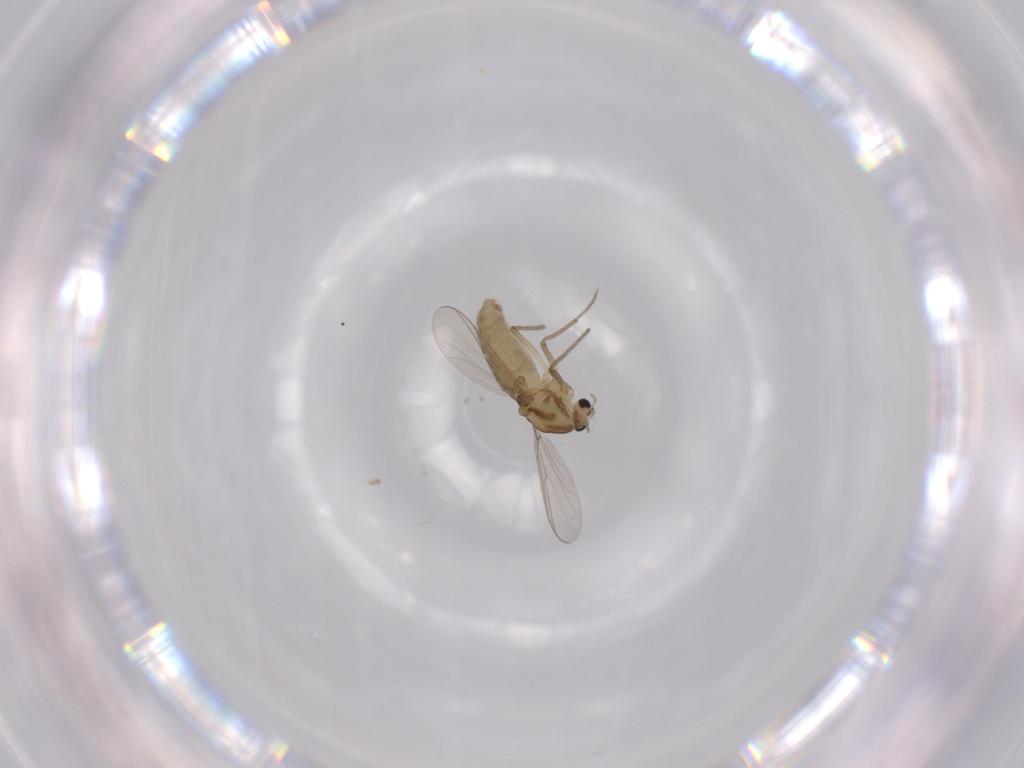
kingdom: Animalia
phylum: Arthropoda
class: Insecta
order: Diptera
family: Chironomidae
